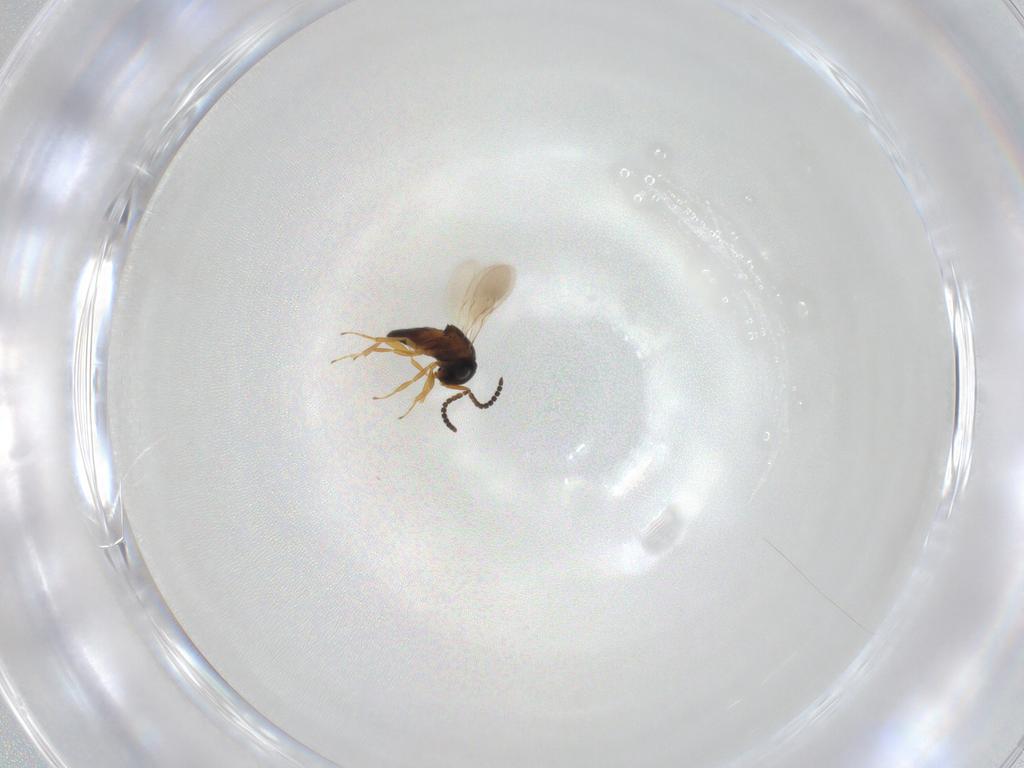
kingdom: Animalia
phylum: Arthropoda
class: Insecta
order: Hymenoptera
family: Scelionidae
